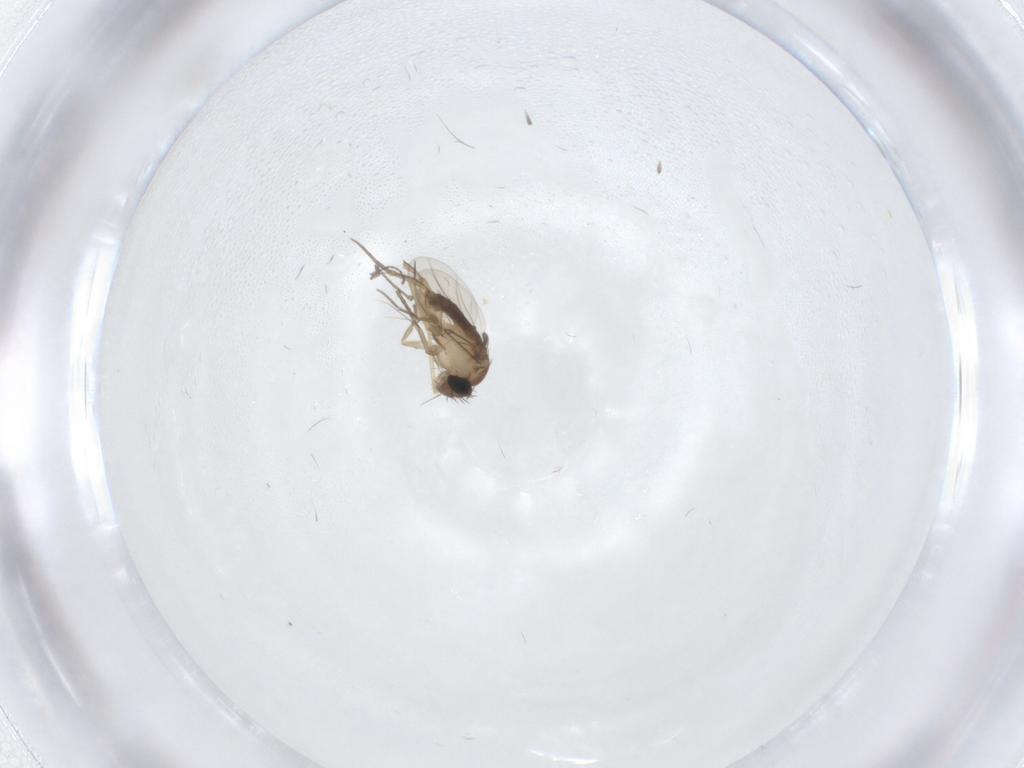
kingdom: Animalia
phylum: Arthropoda
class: Insecta
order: Diptera
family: Phoridae
